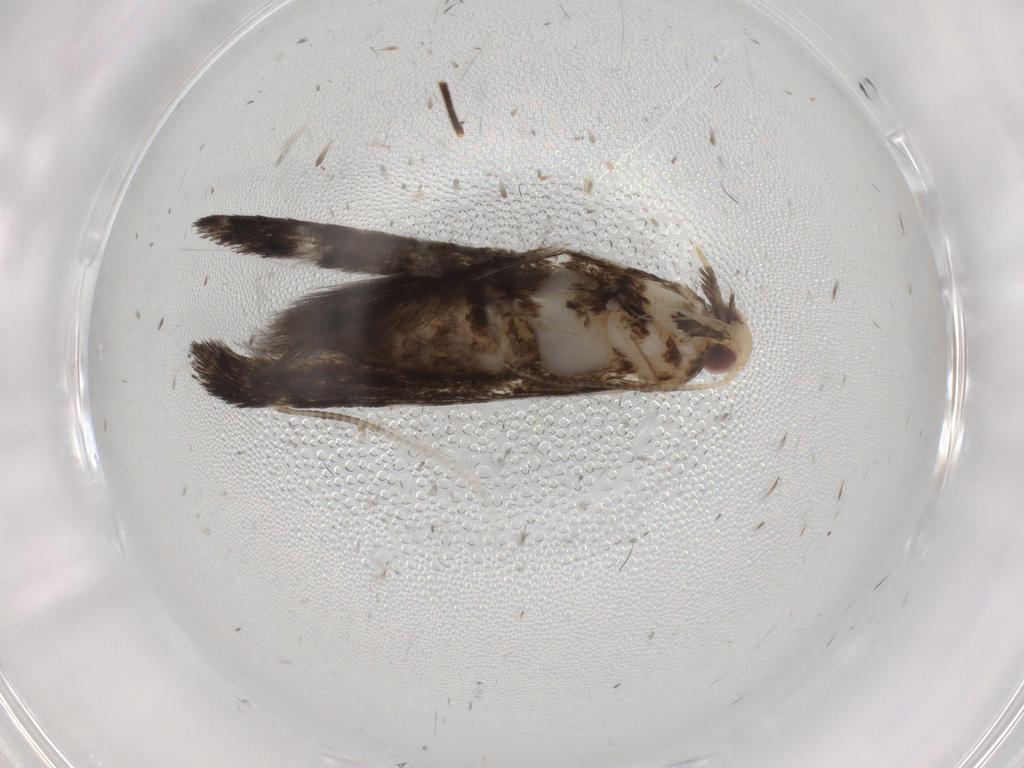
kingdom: Animalia
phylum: Arthropoda
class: Insecta
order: Lepidoptera
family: Gracillariidae
